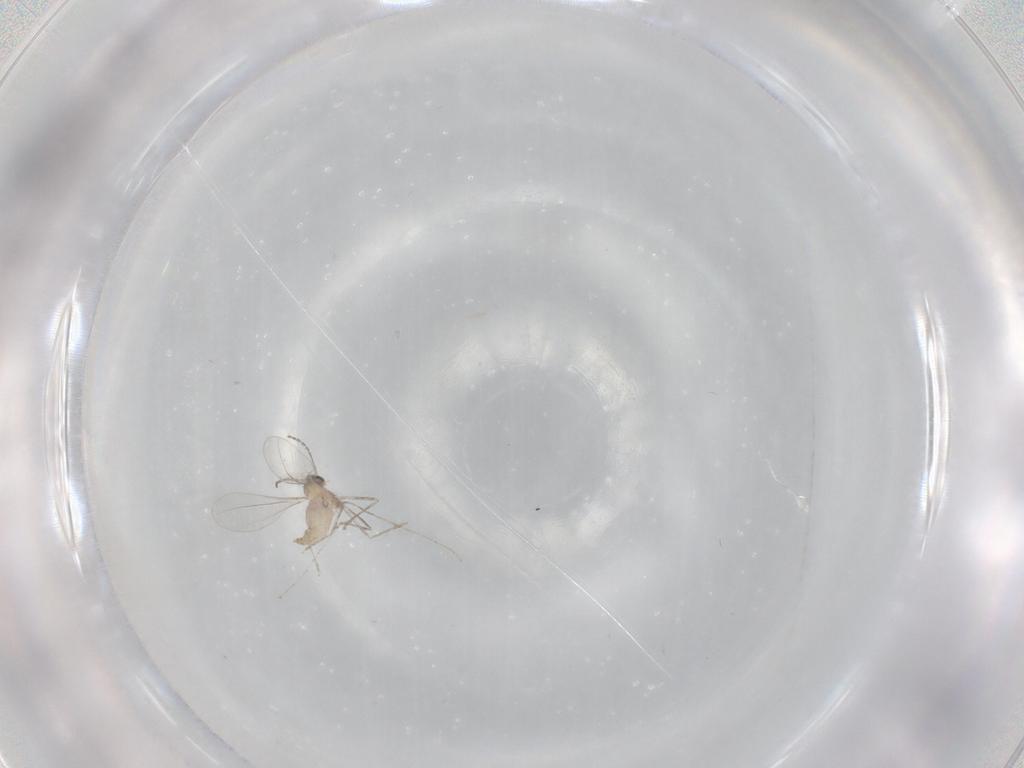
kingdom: Animalia
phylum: Arthropoda
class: Insecta
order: Diptera
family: Cecidomyiidae
